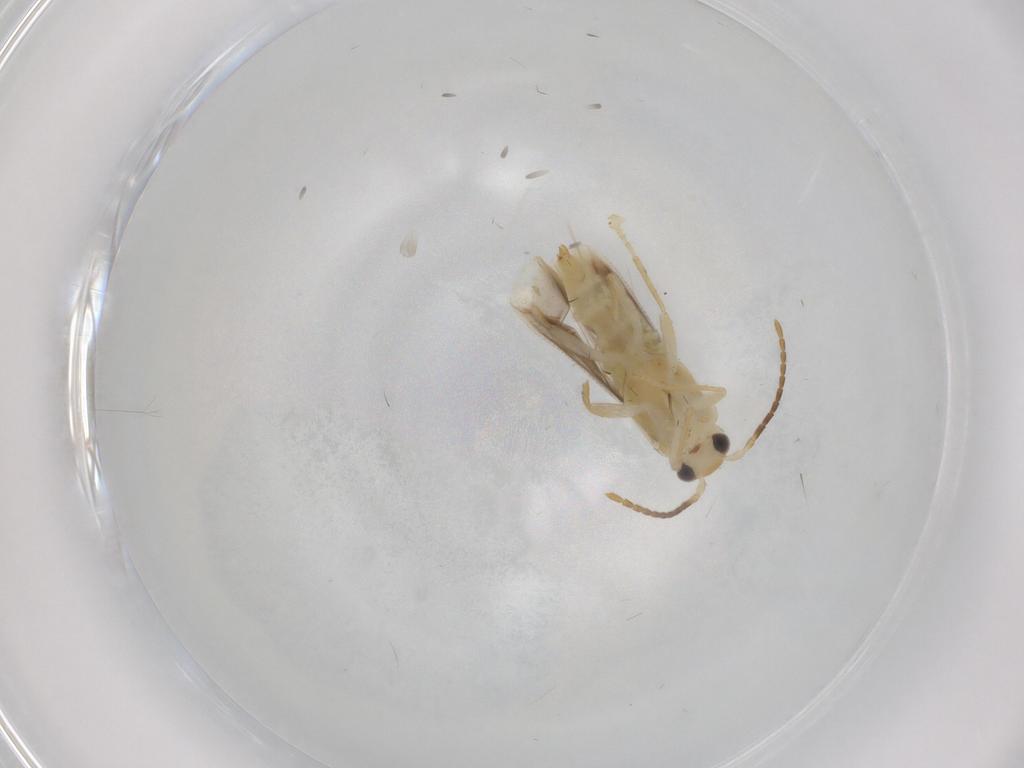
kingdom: Animalia
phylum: Arthropoda
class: Insecta
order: Coleoptera
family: Cantharidae
